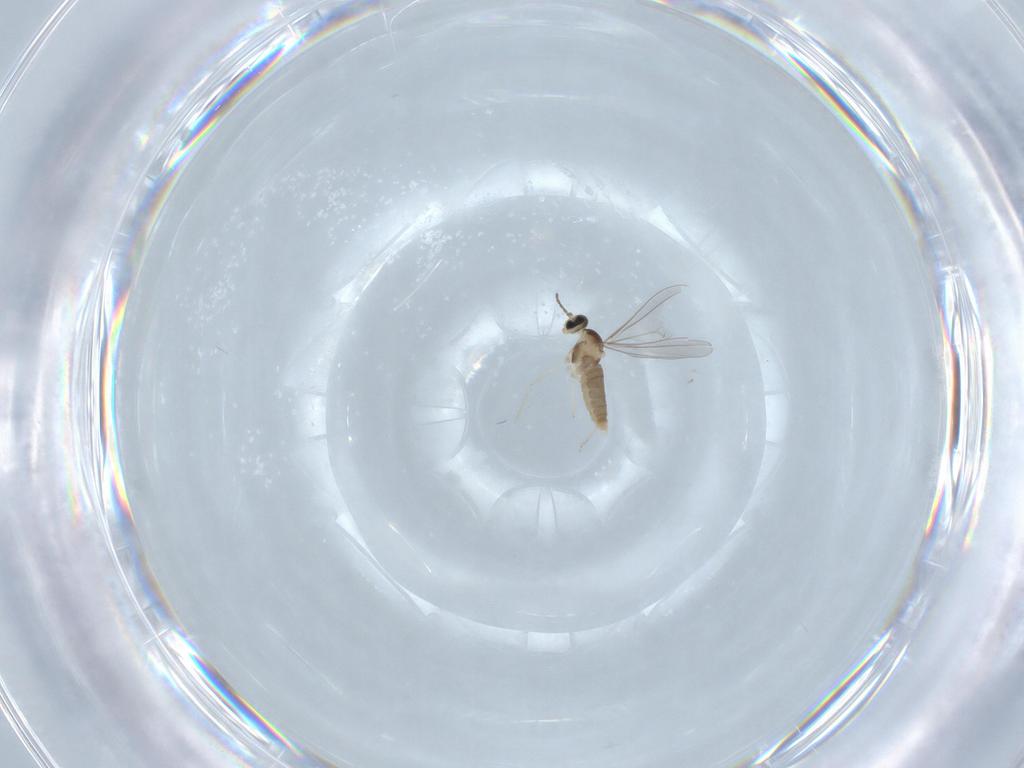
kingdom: Animalia
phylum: Arthropoda
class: Insecta
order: Diptera
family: Cecidomyiidae
